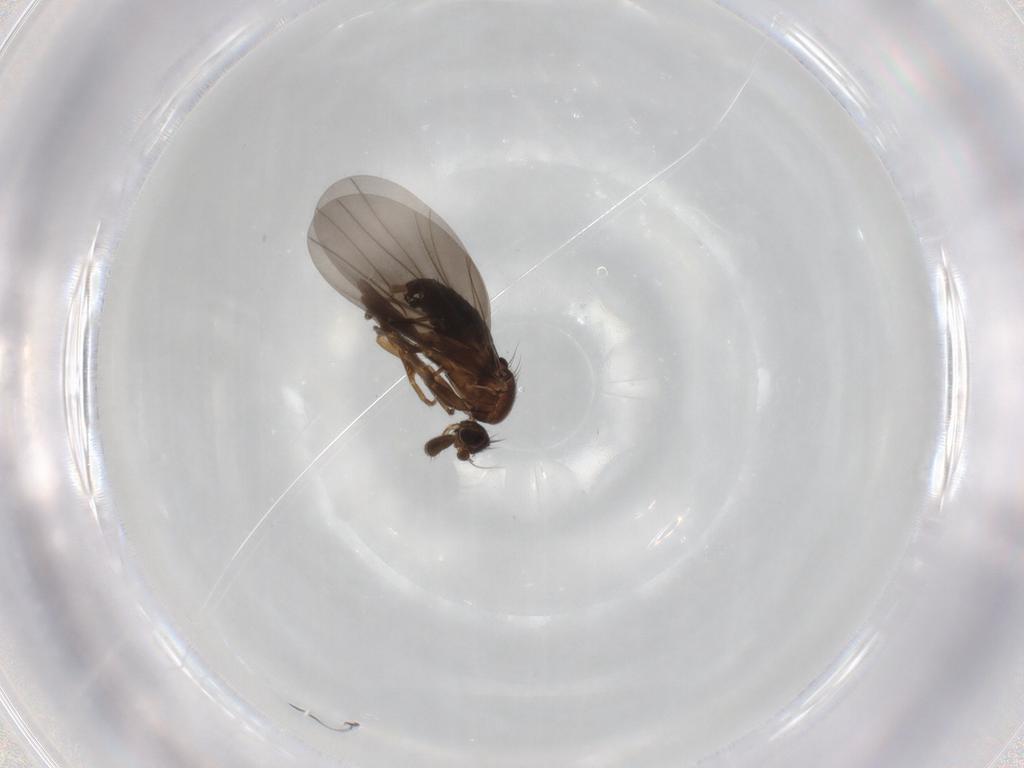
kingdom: Animalia
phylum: Arthropoda
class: Insecta
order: Diptera
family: Sciaridae
